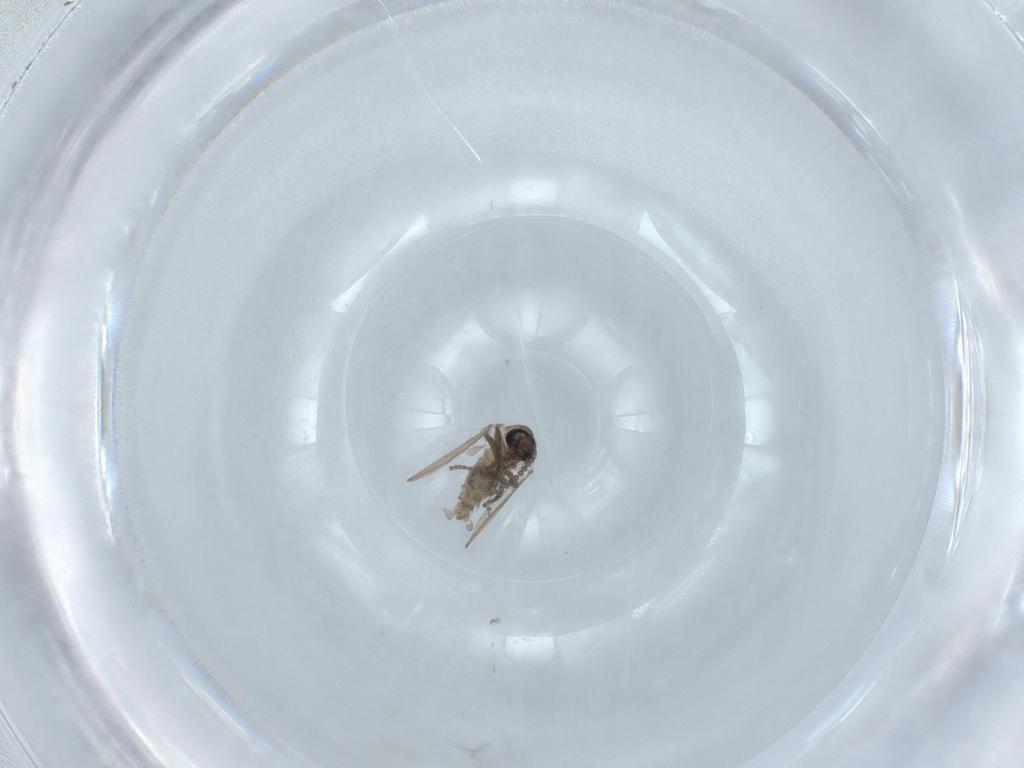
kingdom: Animalia
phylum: Arthropoda
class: Insecta
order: Diptera
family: Psychodidae
